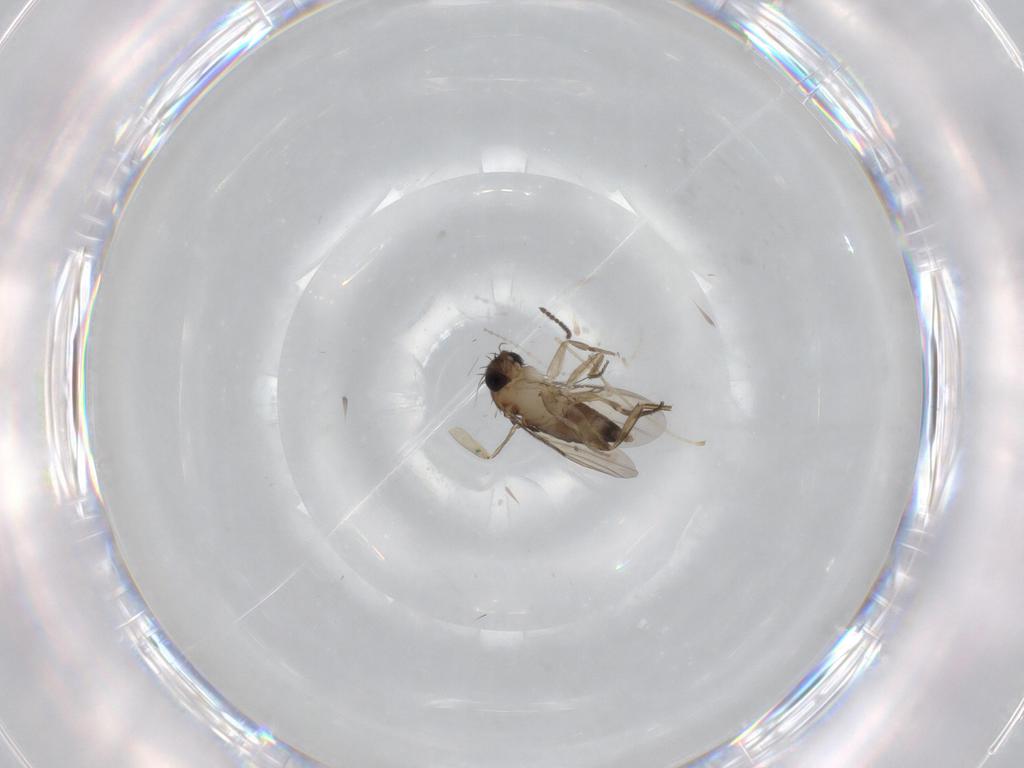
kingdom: Animalia
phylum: Arthropoda
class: Insecta
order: Diptera
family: Phoridae
